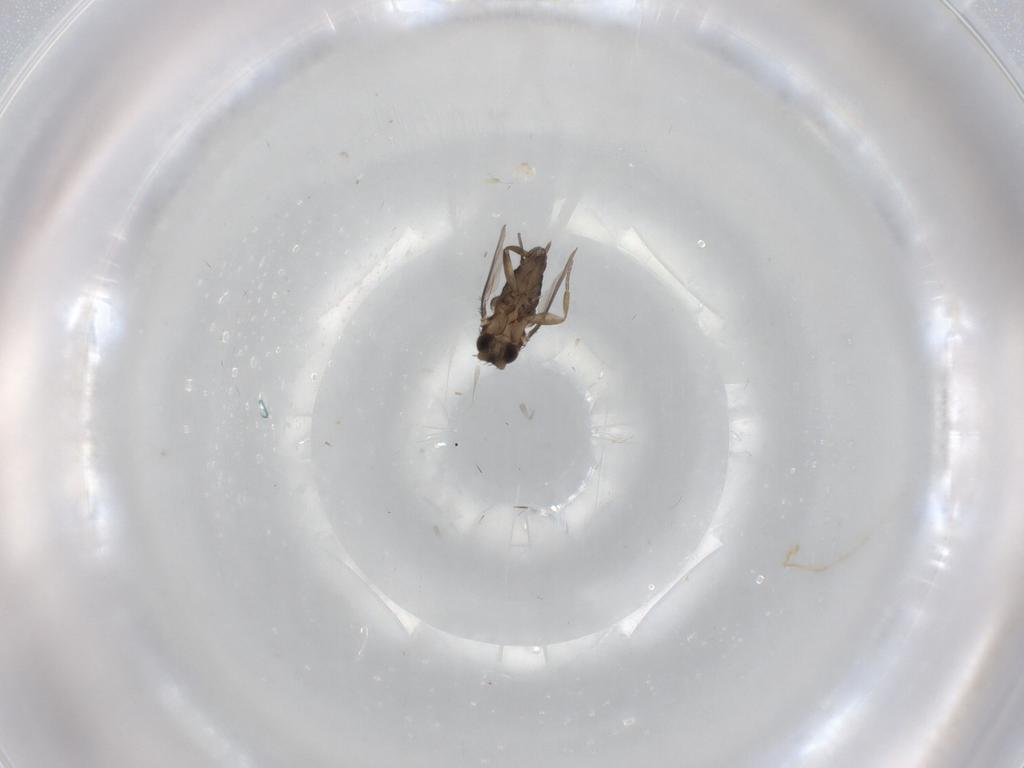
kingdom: Animalia
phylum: Arthropoda
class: Insecta
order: Diptera
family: Phoridae
